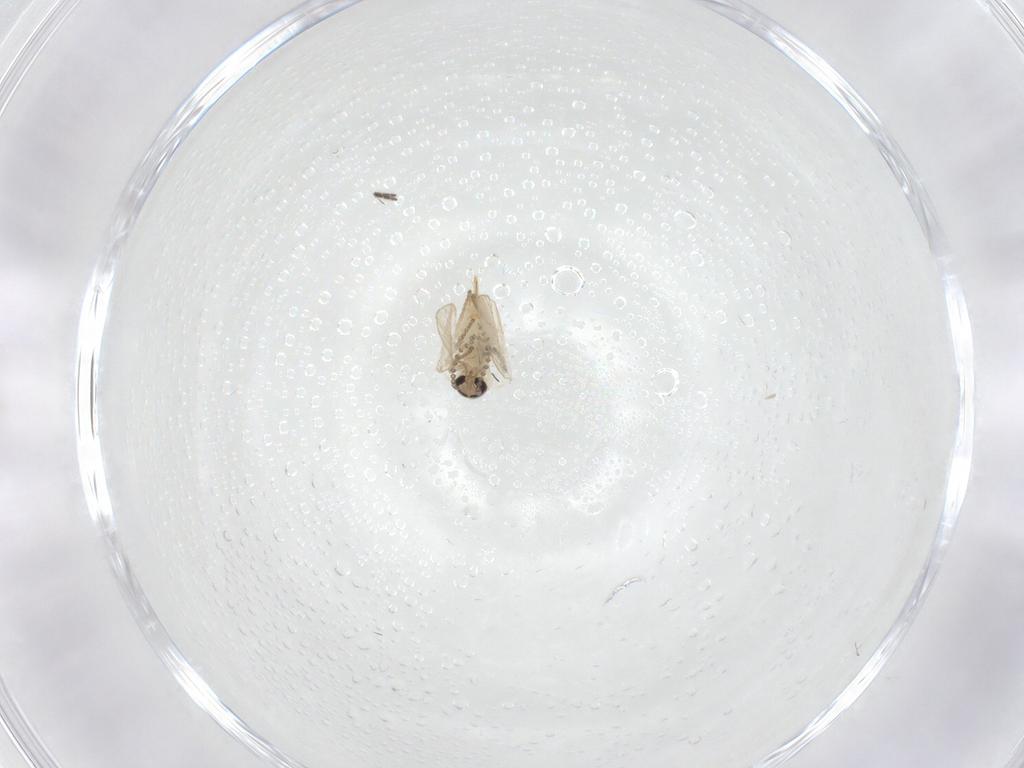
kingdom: Animalia
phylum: Arthropoda
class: Insecta
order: Diptera
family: Sciaridae
